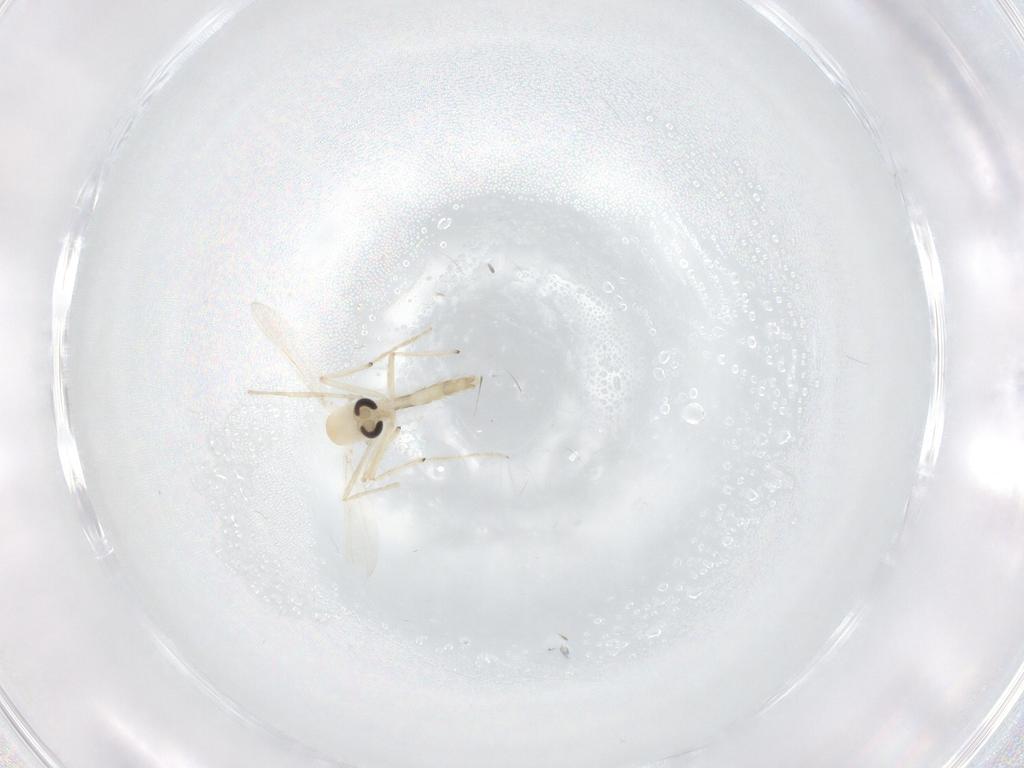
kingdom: Animalia
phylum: Arthropoda
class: Insecta
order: Diptera
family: Chironomidae
